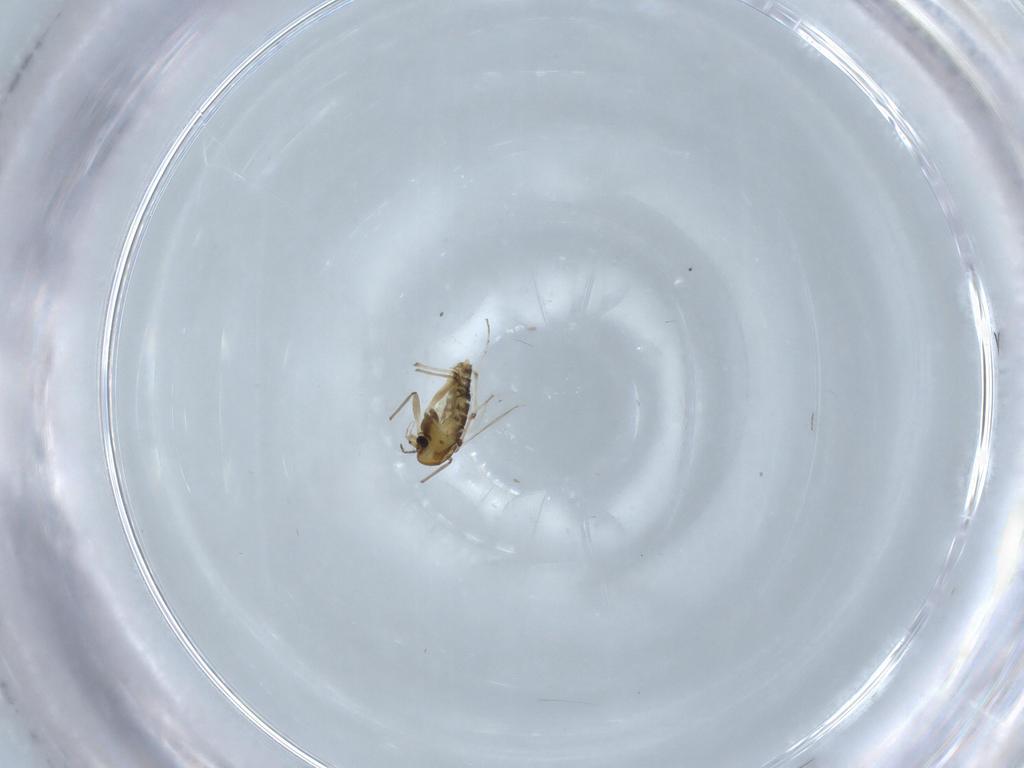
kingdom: Animalia
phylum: Arthropoda
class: Insecta
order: Diptera
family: Chironomidae
